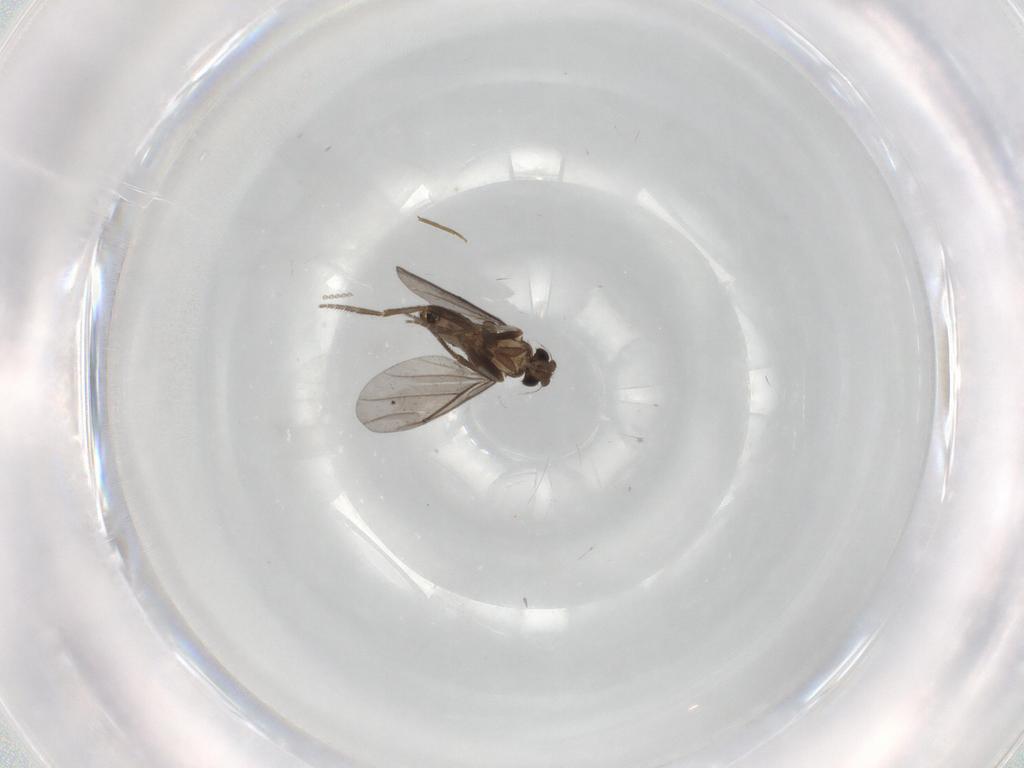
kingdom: Animalia
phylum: Arthropoda
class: Insecta
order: Diptera
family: Cecidomyiidae
